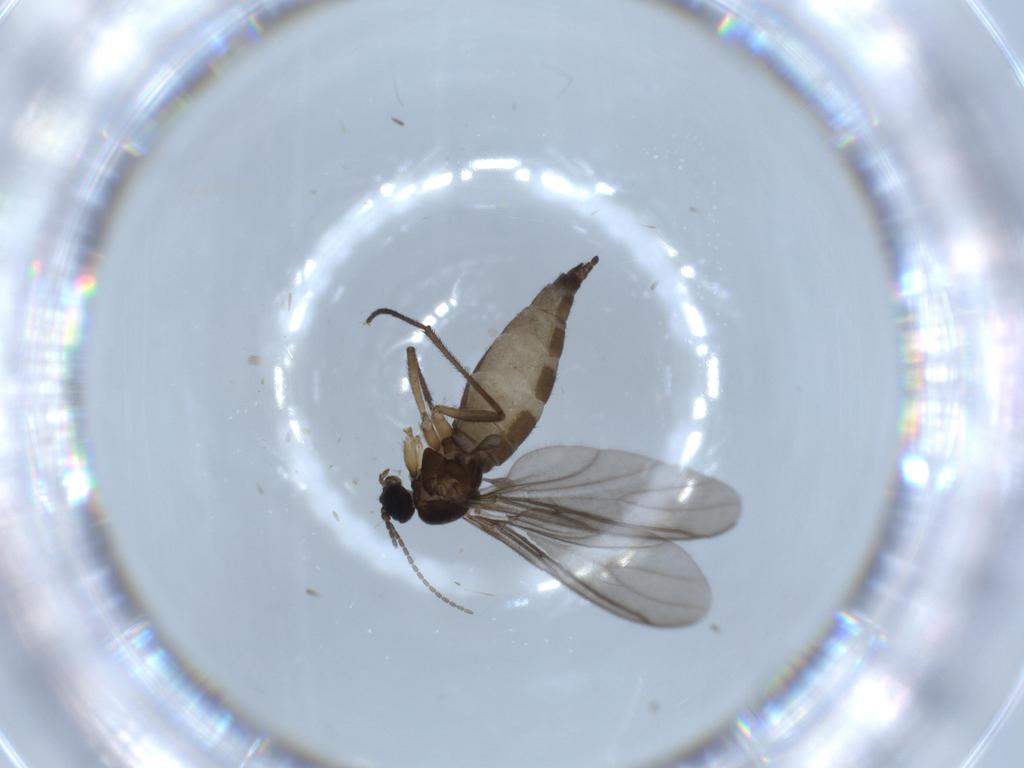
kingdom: Animalia
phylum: Arthropoda
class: Insecta
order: Diptera
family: Sciaridae
